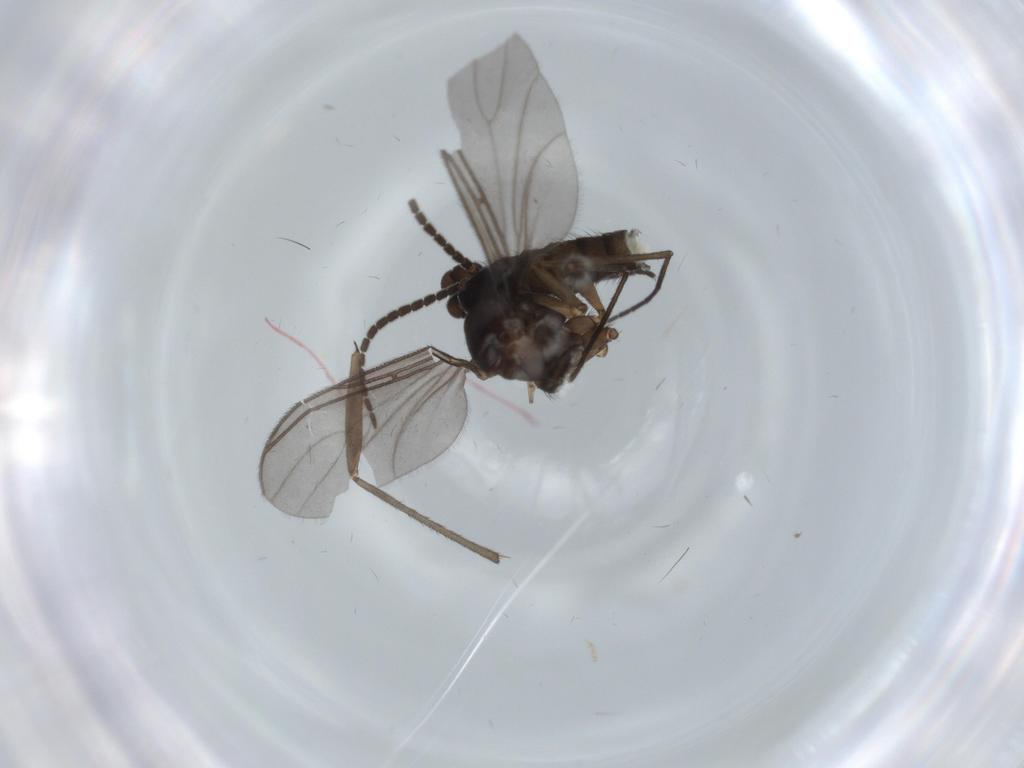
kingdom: Animalia
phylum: Arthropoda
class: Insecta
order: Diptera
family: Sciaridae
